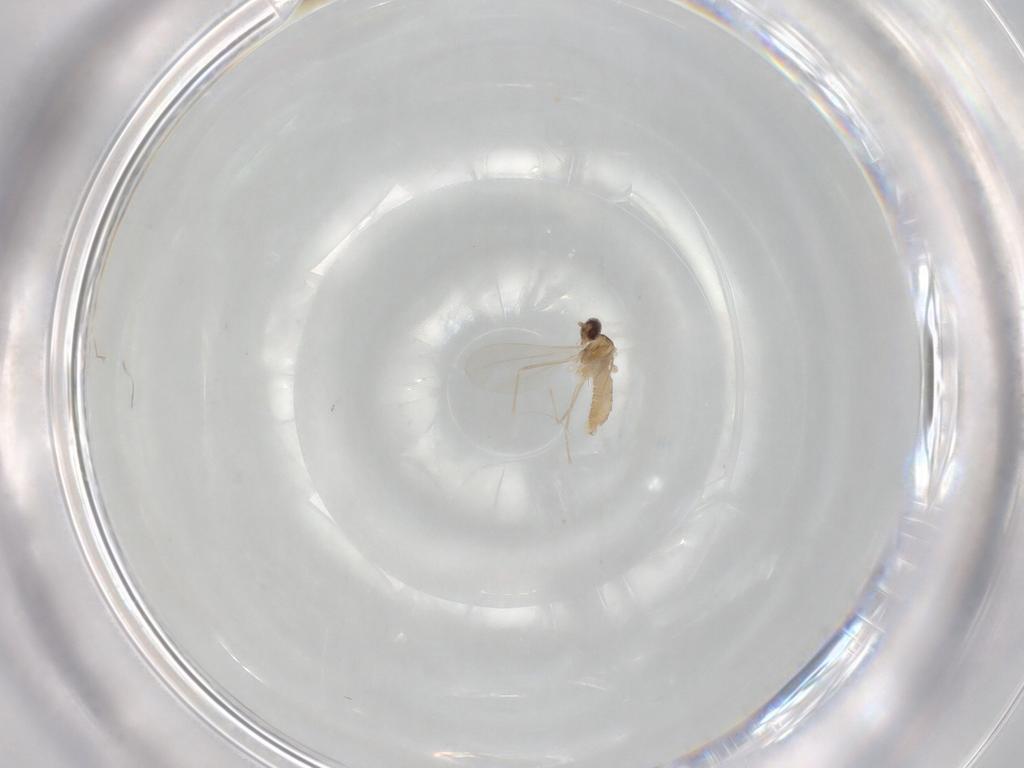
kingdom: Animalia
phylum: Arthropoda
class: Insecta
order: Diptera
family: Cecidomyiidae
